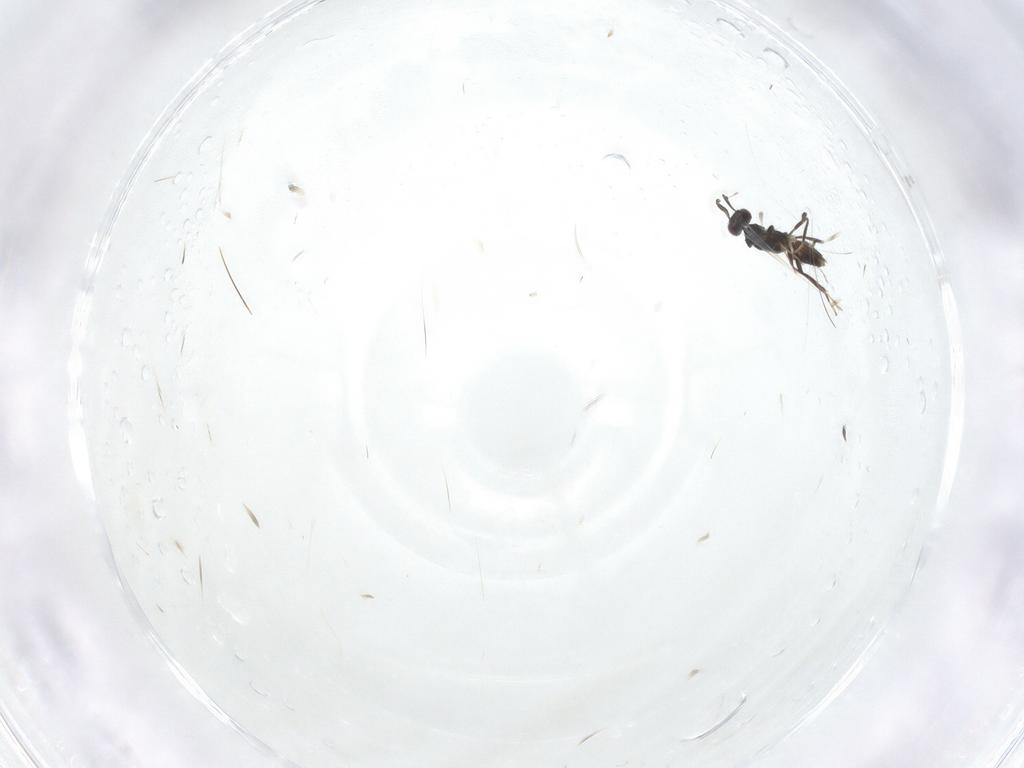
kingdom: Animalia
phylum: Arthropoda
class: Insecta
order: Hymenoptera
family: Mymaridae
